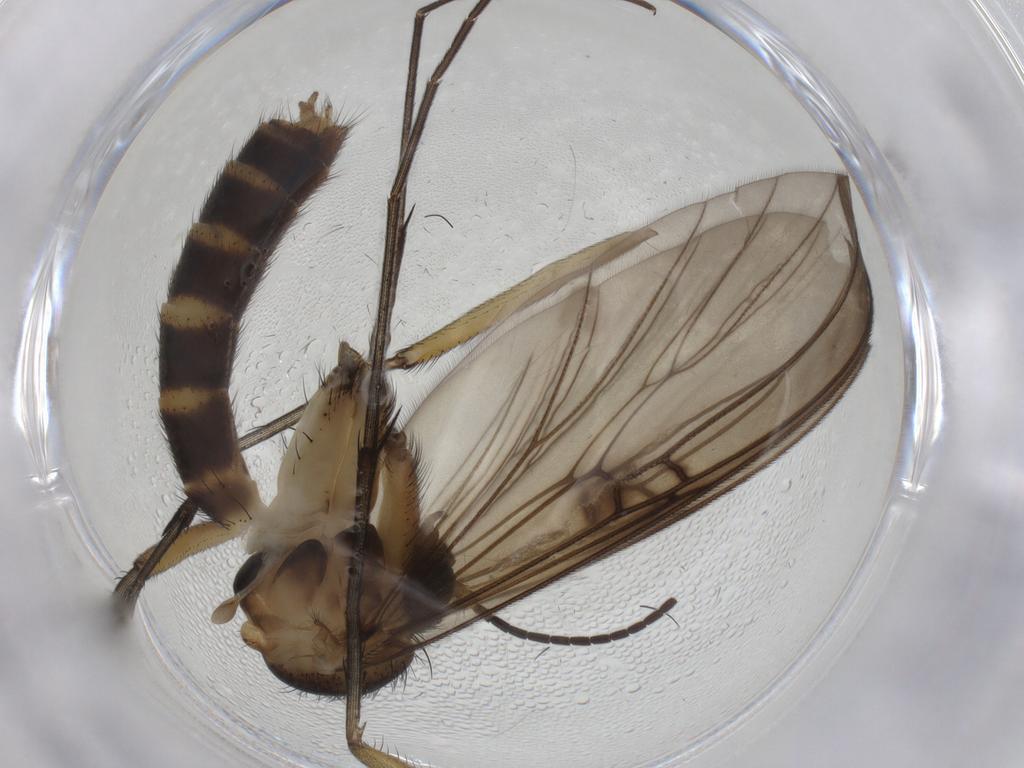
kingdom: Animalia
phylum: Arthropoda
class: Insecta
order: Diptera
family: Mycetophilidae
